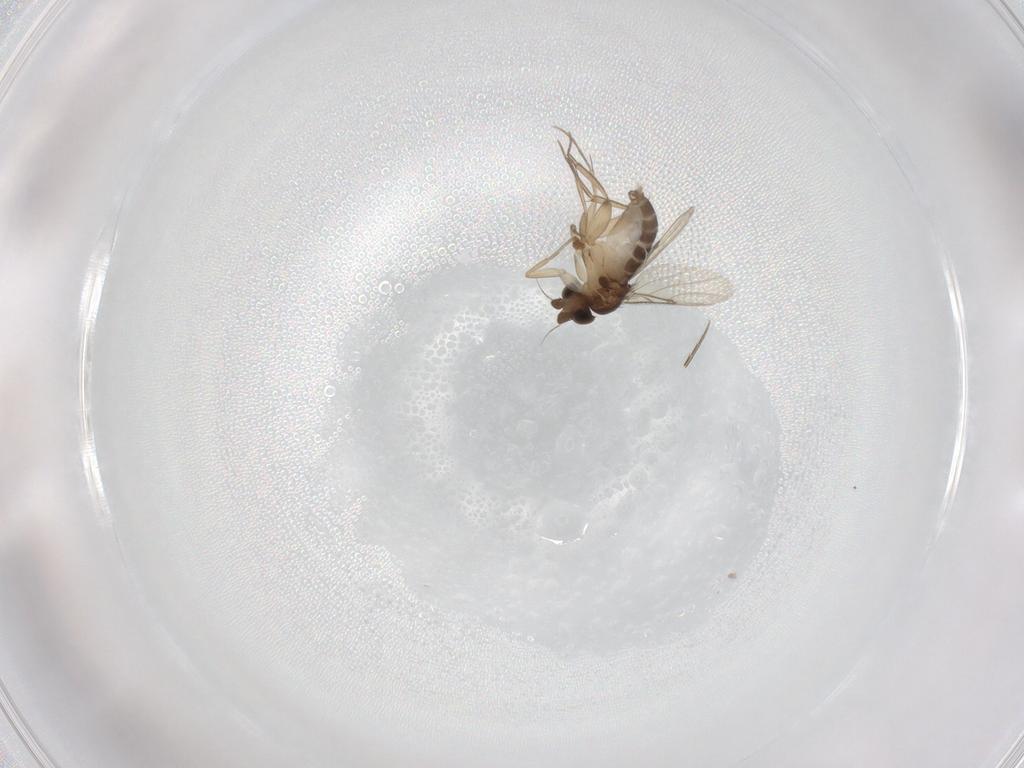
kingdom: Animalia
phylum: Arthropoda
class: Insecta
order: Diptera
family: Phoridae
